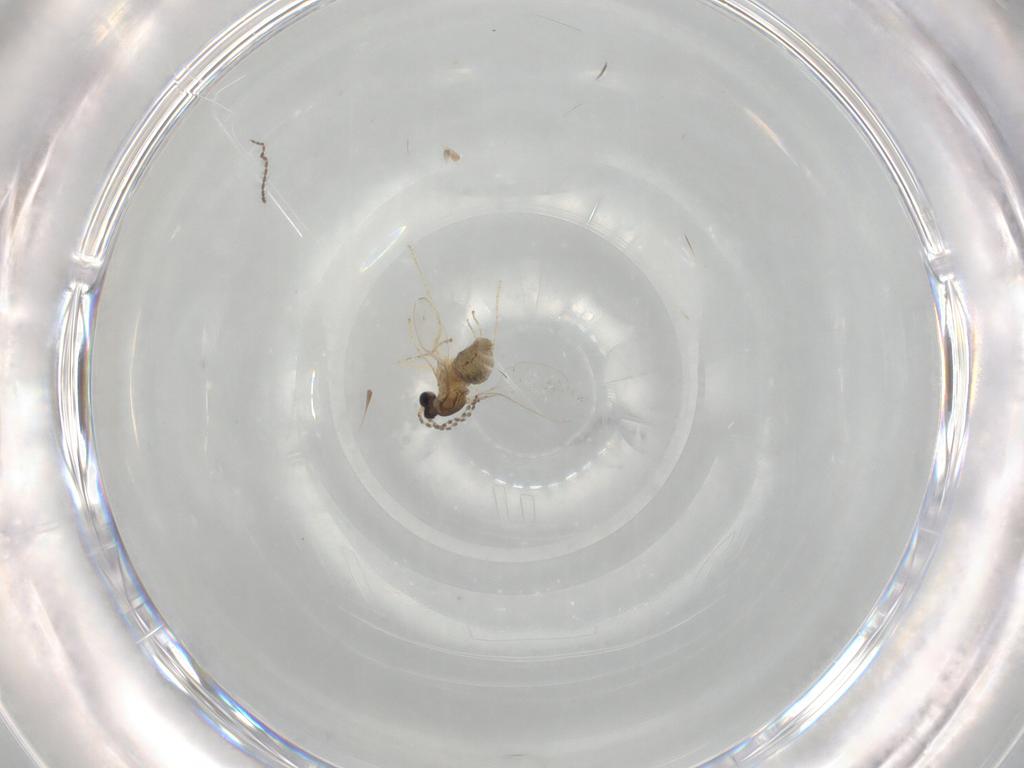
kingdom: Animalia
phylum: Arthropoda
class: Insecta
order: Diptera
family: Cecidomyiidae
